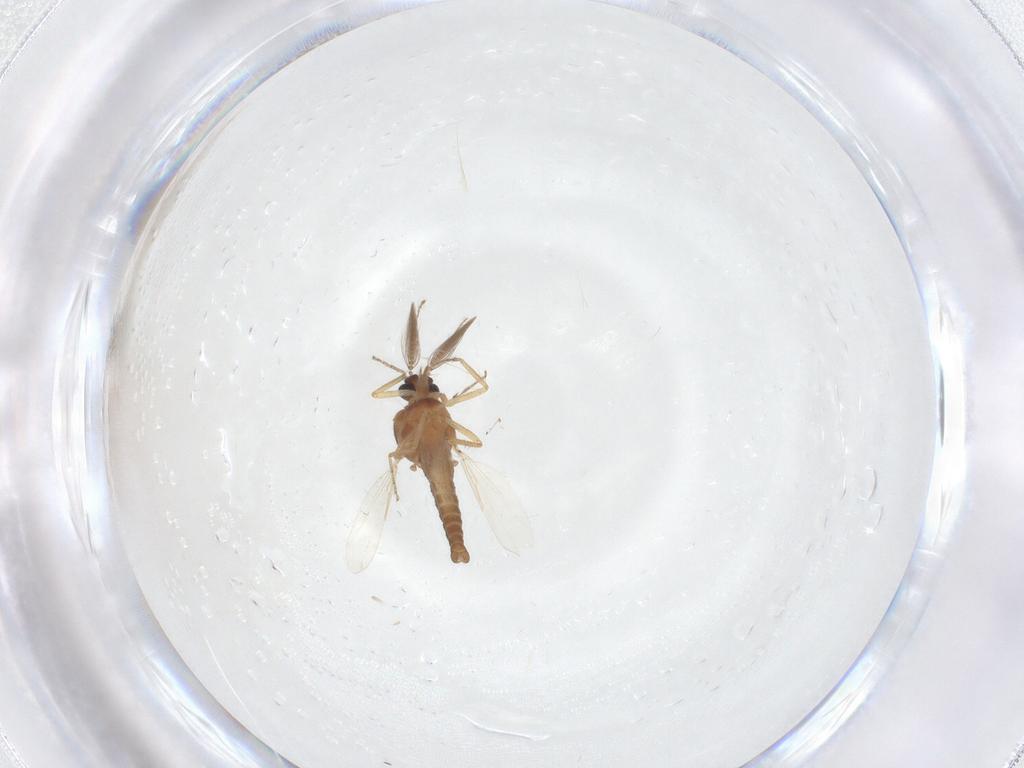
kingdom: Animalia
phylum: Arthropoda
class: Insecta
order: Diptera
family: Ceratopogonidae
